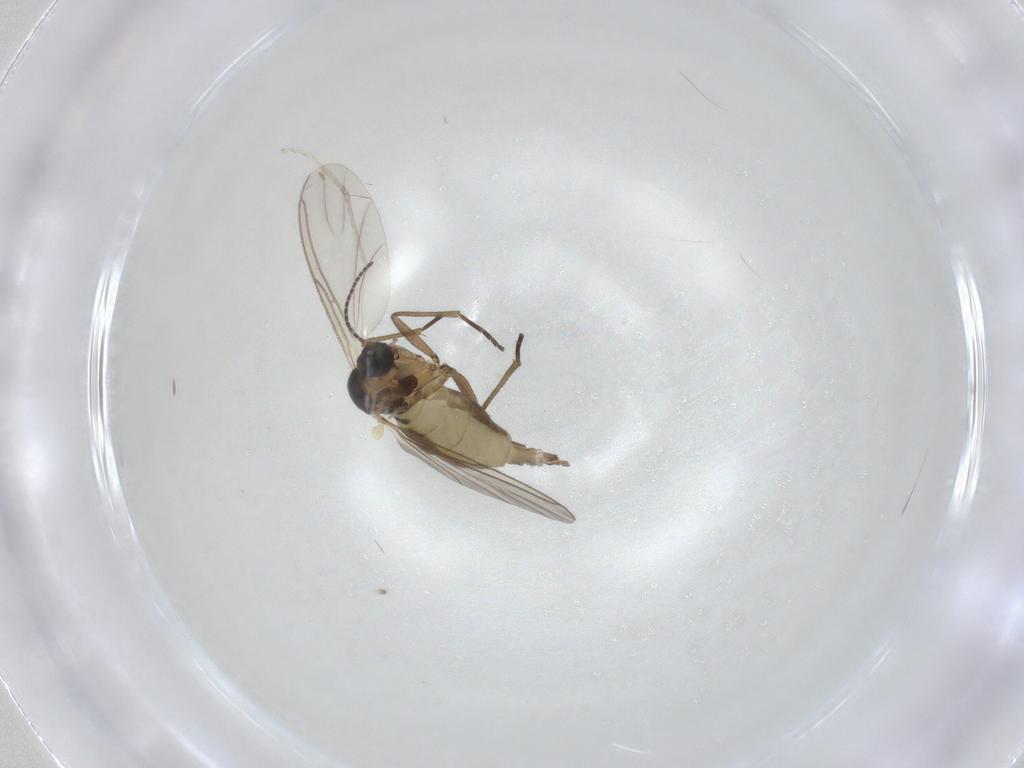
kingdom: Animalia
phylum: Arthropoda
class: Insecta
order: Diptera
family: Cecidomyiidae
